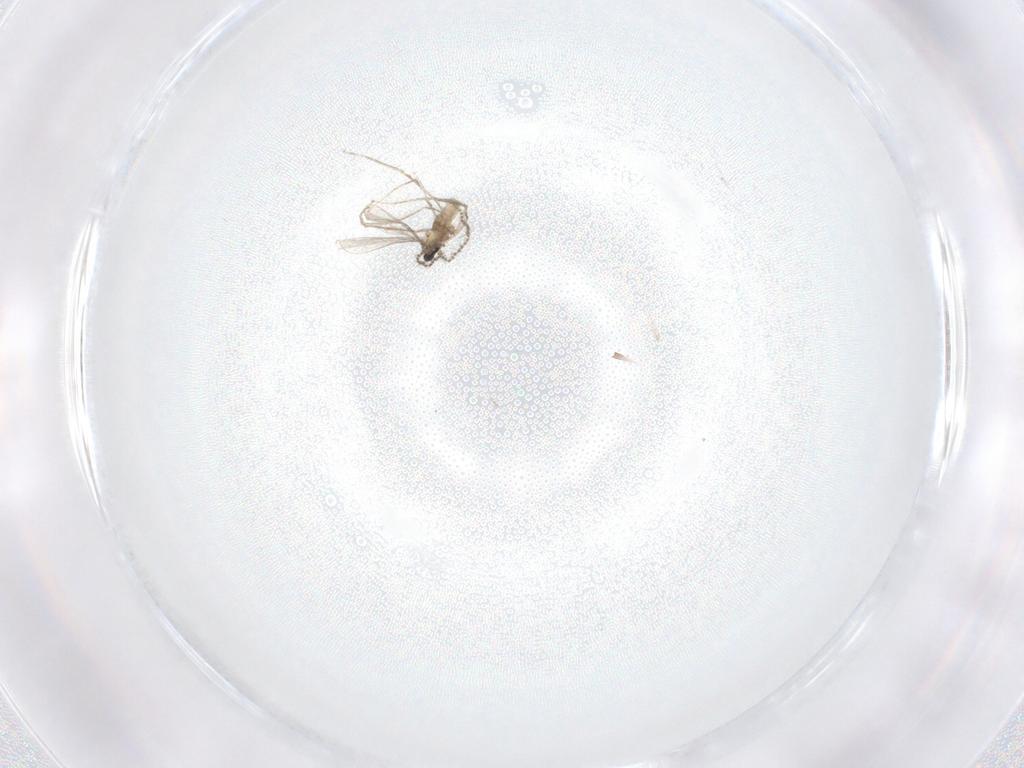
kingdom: Animalia
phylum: Arthropoda
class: Insecta
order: Diptera
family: Cecidomyiidae
